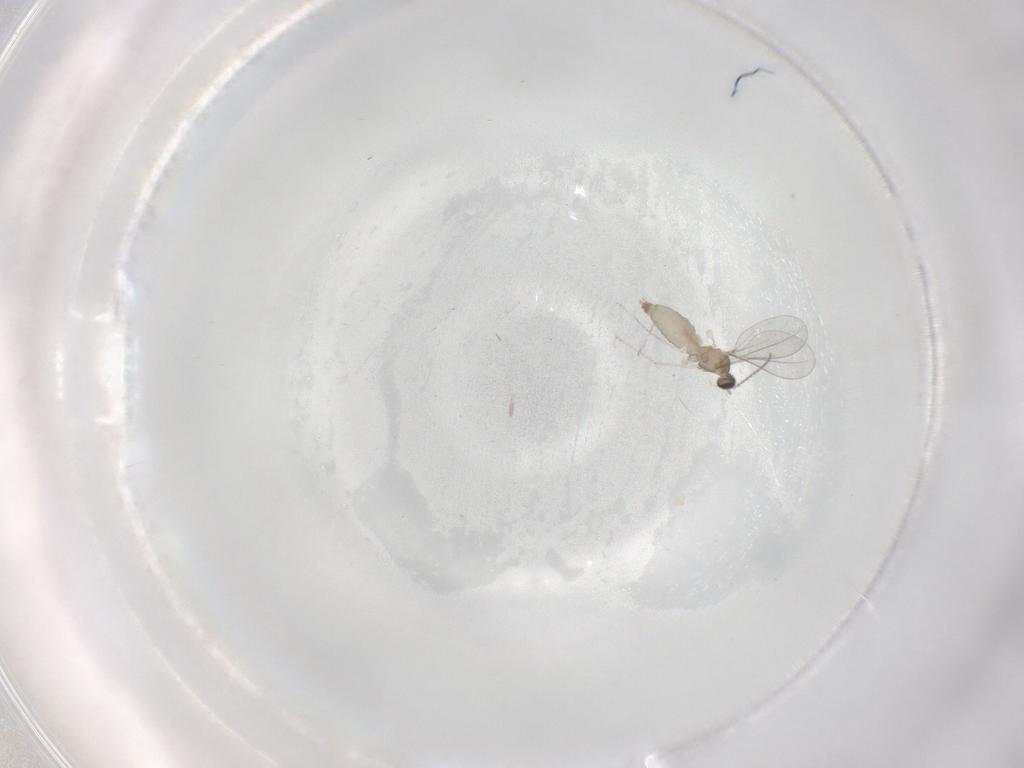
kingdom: Animalia
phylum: Arthropoda
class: Insecta
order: Diptera
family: Cecidomyiidae
